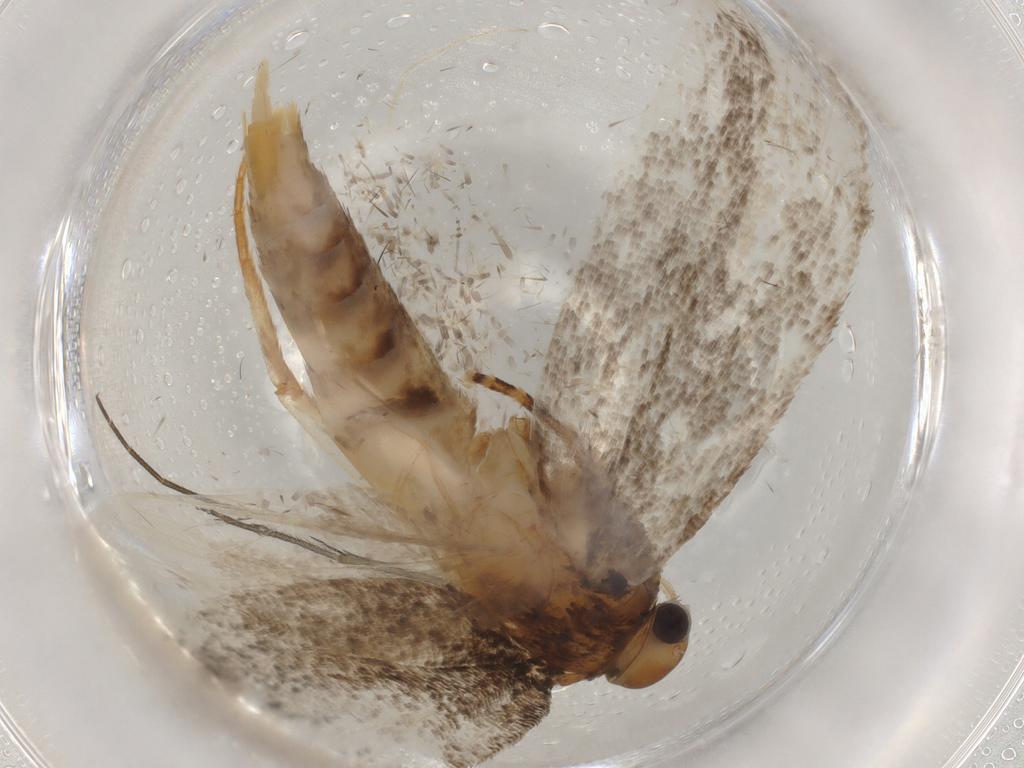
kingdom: Animalia
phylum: Arthropoda
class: Insecta
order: Lepidoptera
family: Oecophoridae
